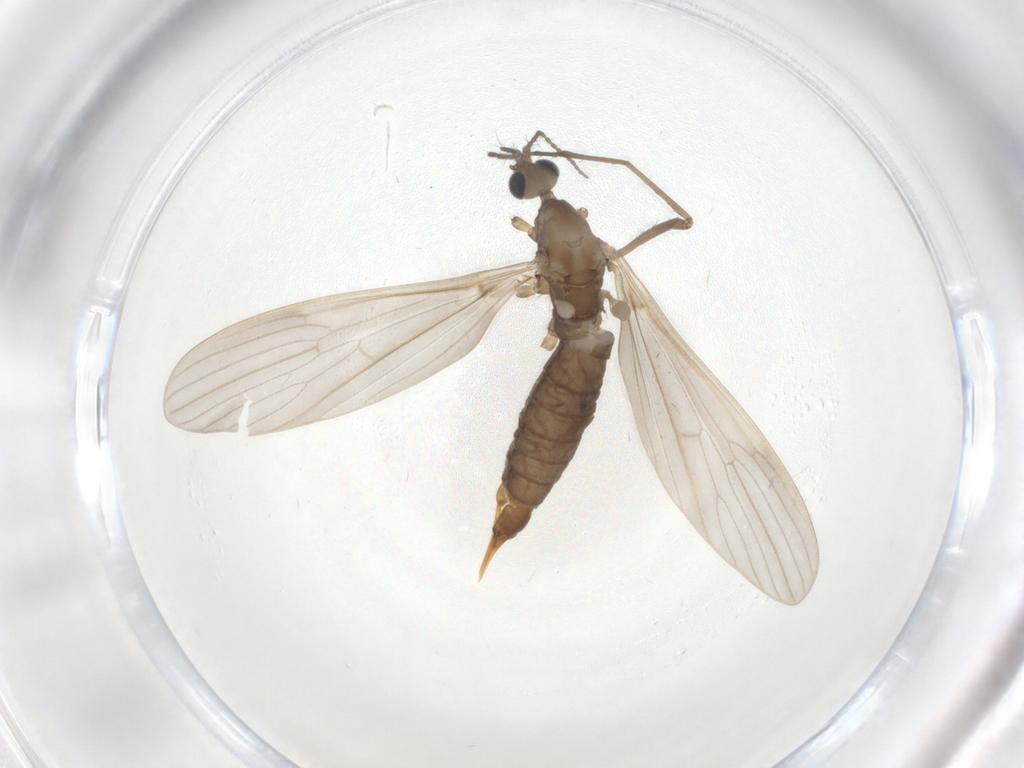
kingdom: Animalia
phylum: Arthropoda
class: Insecta
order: Diptera
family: Limoniidae
